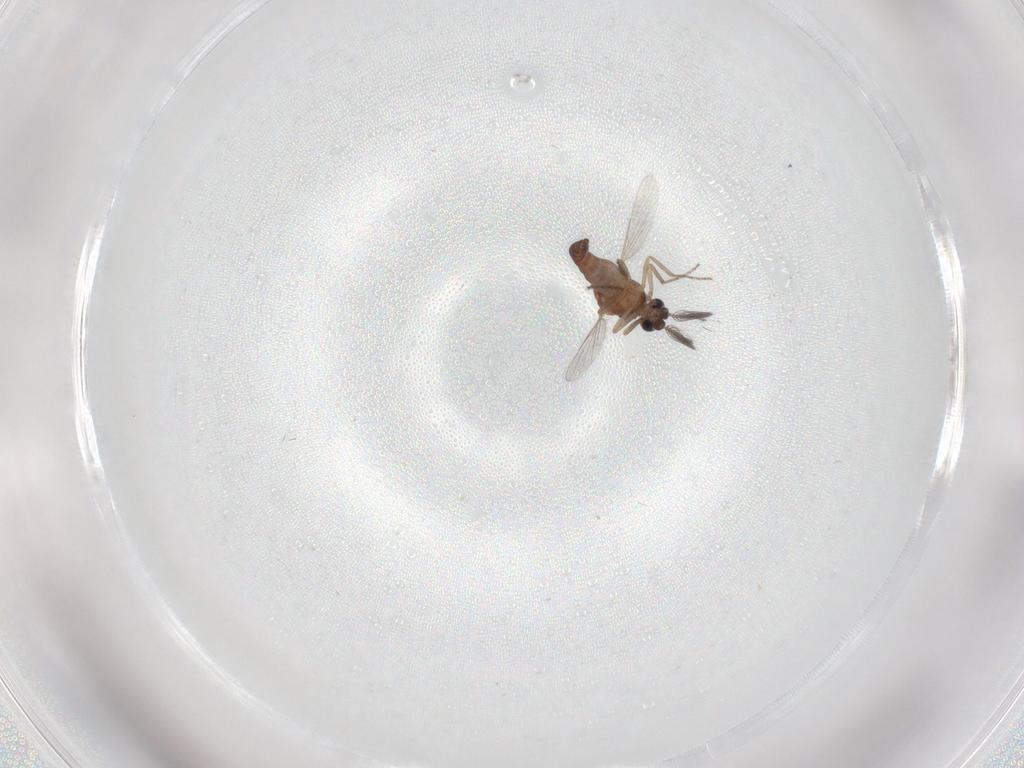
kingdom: Animalia
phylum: Arthropoda
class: Insecta
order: Diptera
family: Ceratopogonidae
